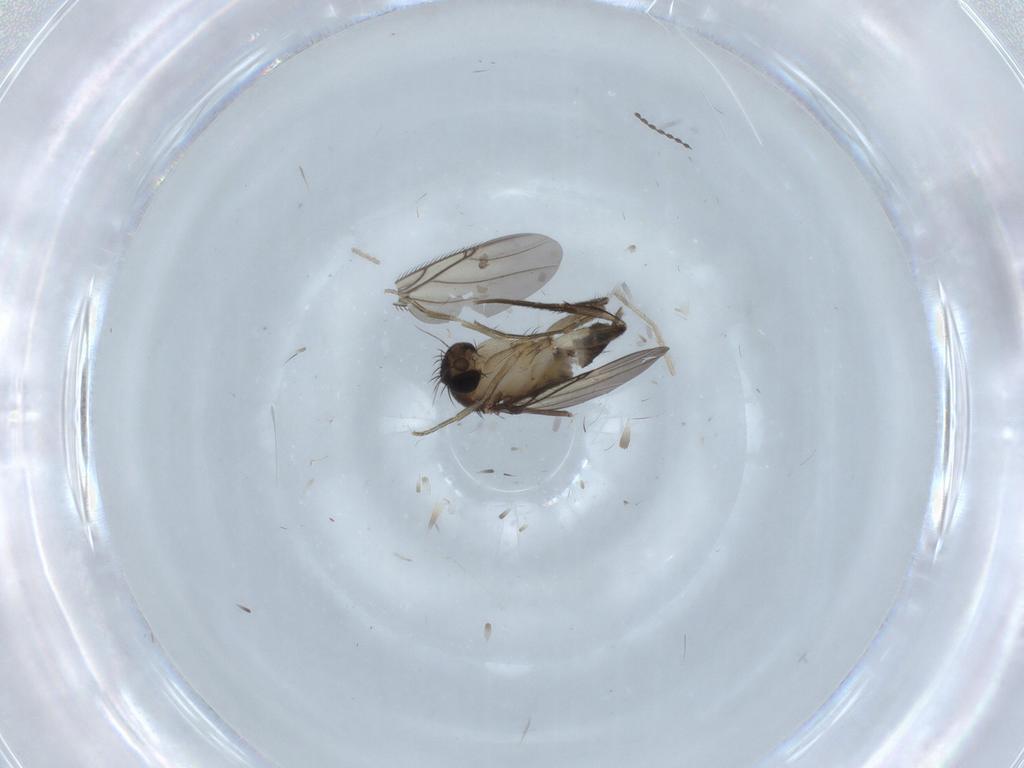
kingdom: Animalia
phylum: Arthropoda
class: Insecta
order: Diptera
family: Sciaridae
